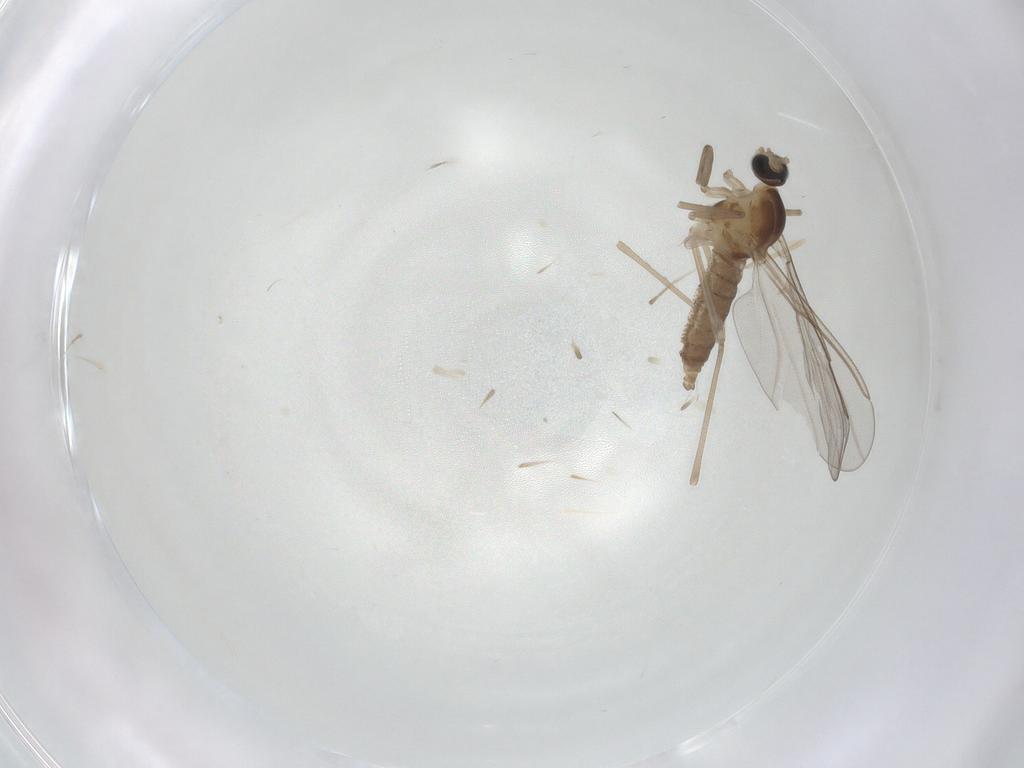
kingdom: Animalia
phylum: Arthropoda
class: Insecta
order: Diptera
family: Cecidomyiidae
